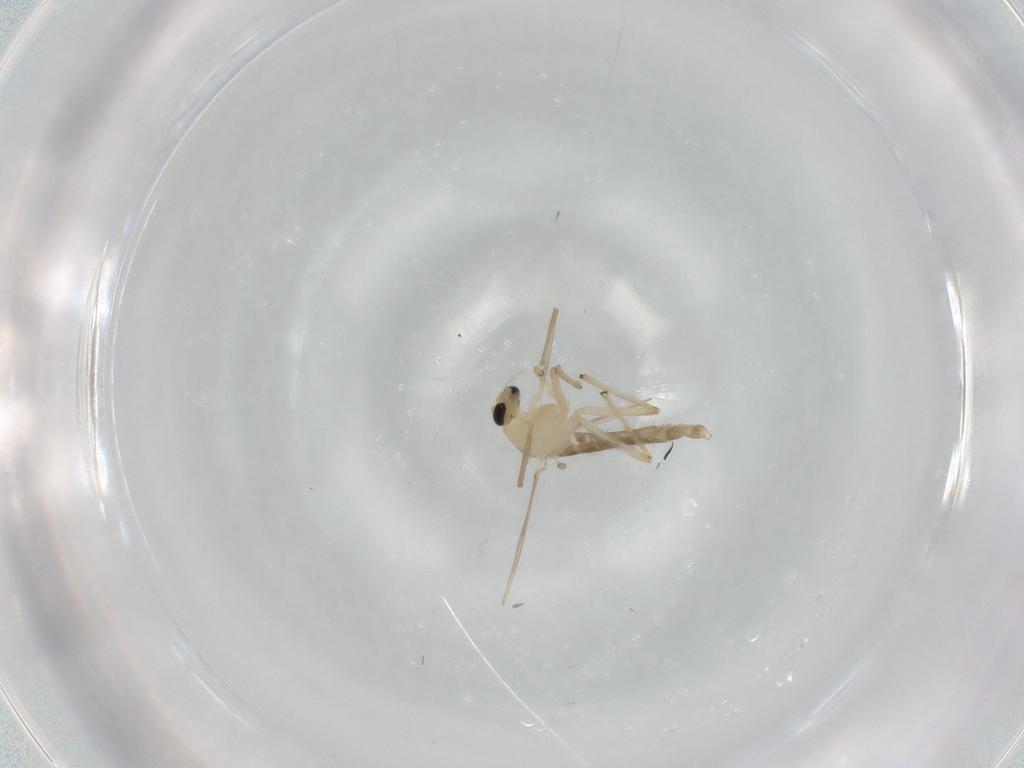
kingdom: Animalia
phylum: Arthropoda
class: Insecta
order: Diptera
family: Chironomidae
